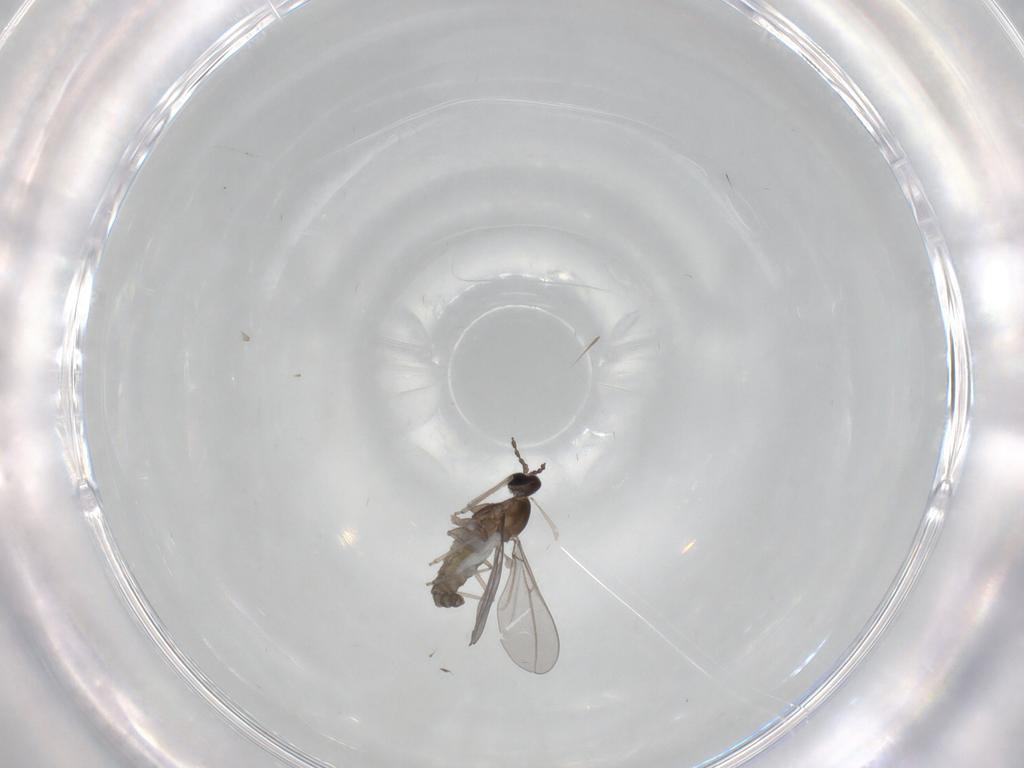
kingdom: Animalia
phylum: Arthropoda
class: Insecta
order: Diptera
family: Cecidomyiidae
